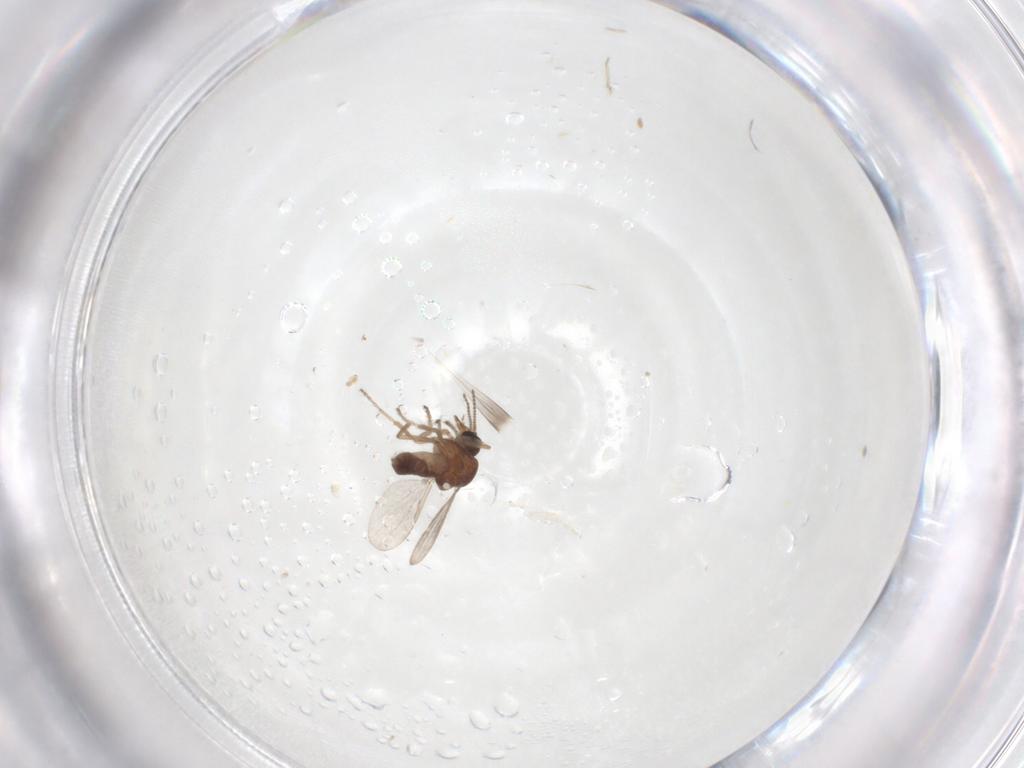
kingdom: Animalia
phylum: Arthropoda
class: Insecta
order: Diptera
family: Ceratopogonidae
